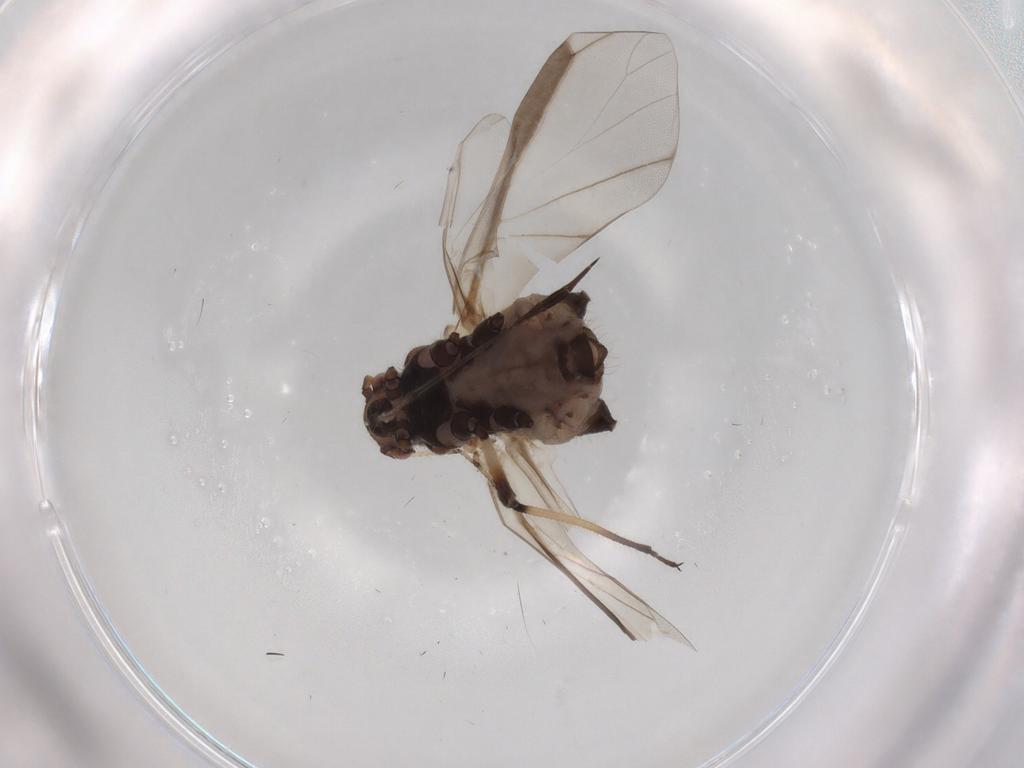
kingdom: Animalia
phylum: Arthropoda
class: Insecta
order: Hemiptera
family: Aphididae
